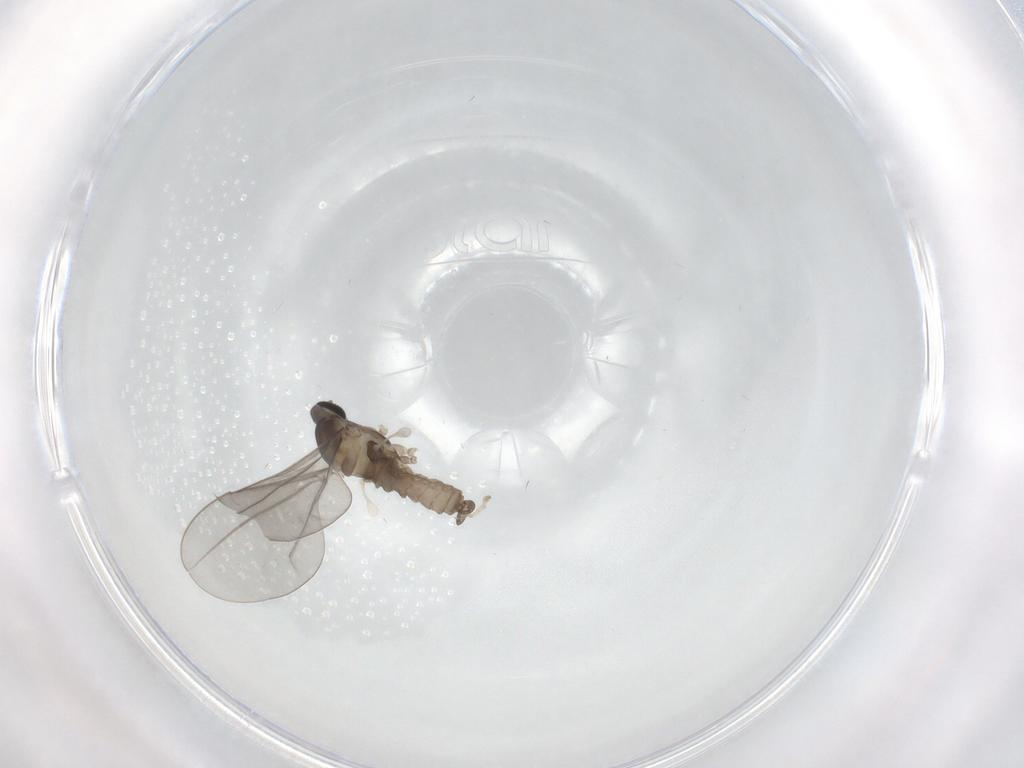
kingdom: Animalia
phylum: Arthropoda
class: Insecta
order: Diptera
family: Cecidomyiidae
